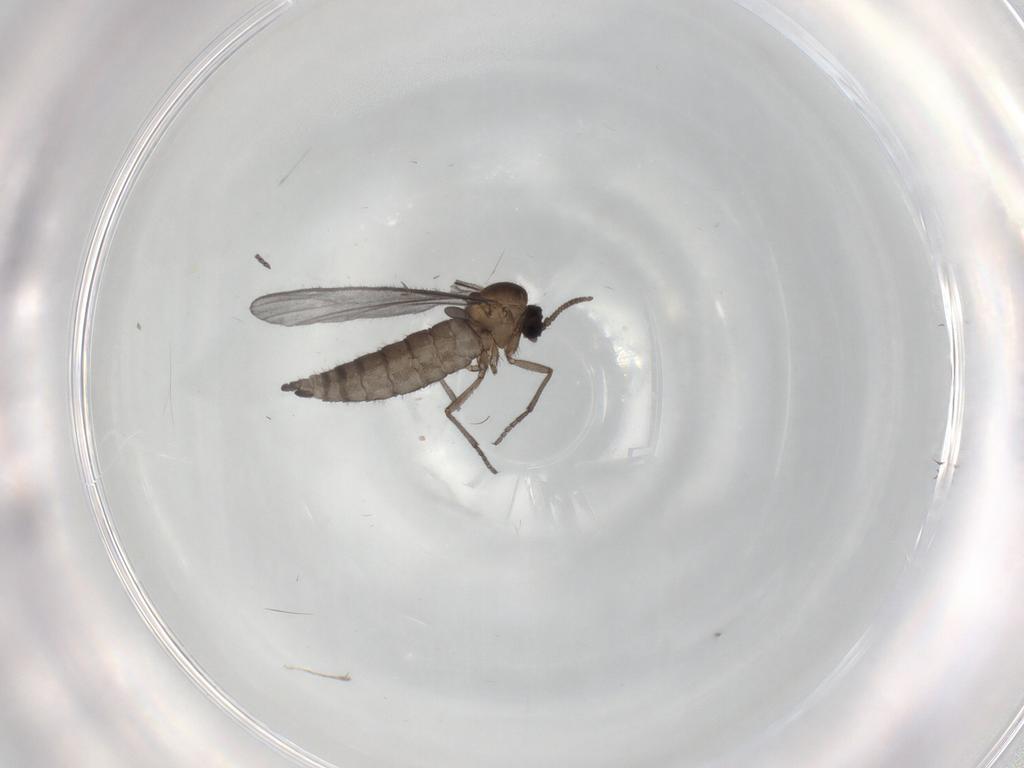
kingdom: Animalia
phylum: Arthropoda
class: Insecta
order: Diptera
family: Sciaridae
